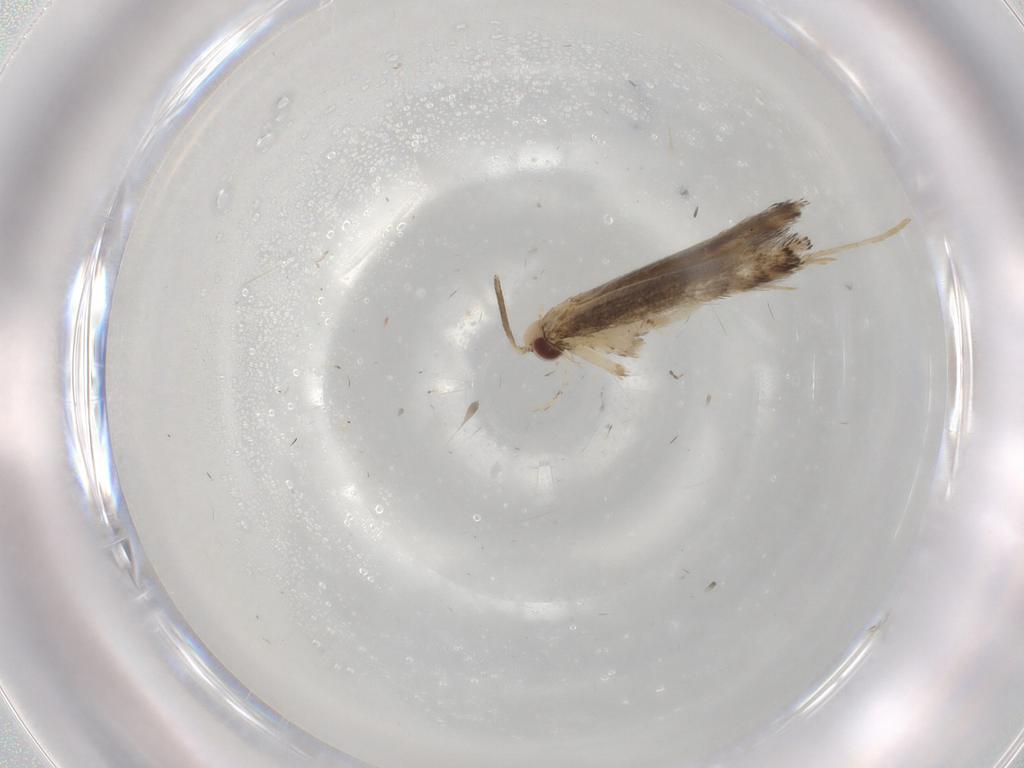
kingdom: Animalia
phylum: Arthropoda
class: Insecta
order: Lepidoptera
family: Gracillariidae
